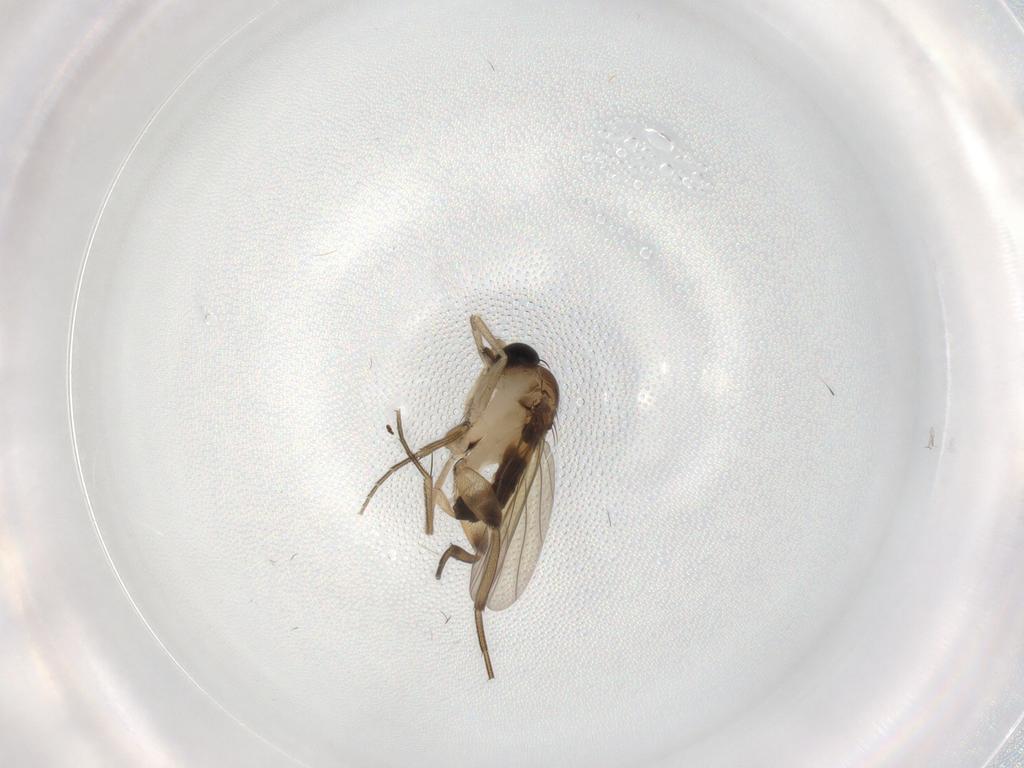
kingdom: Animalia
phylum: Arthropoda
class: Insecta
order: Diptera
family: Phoridae
